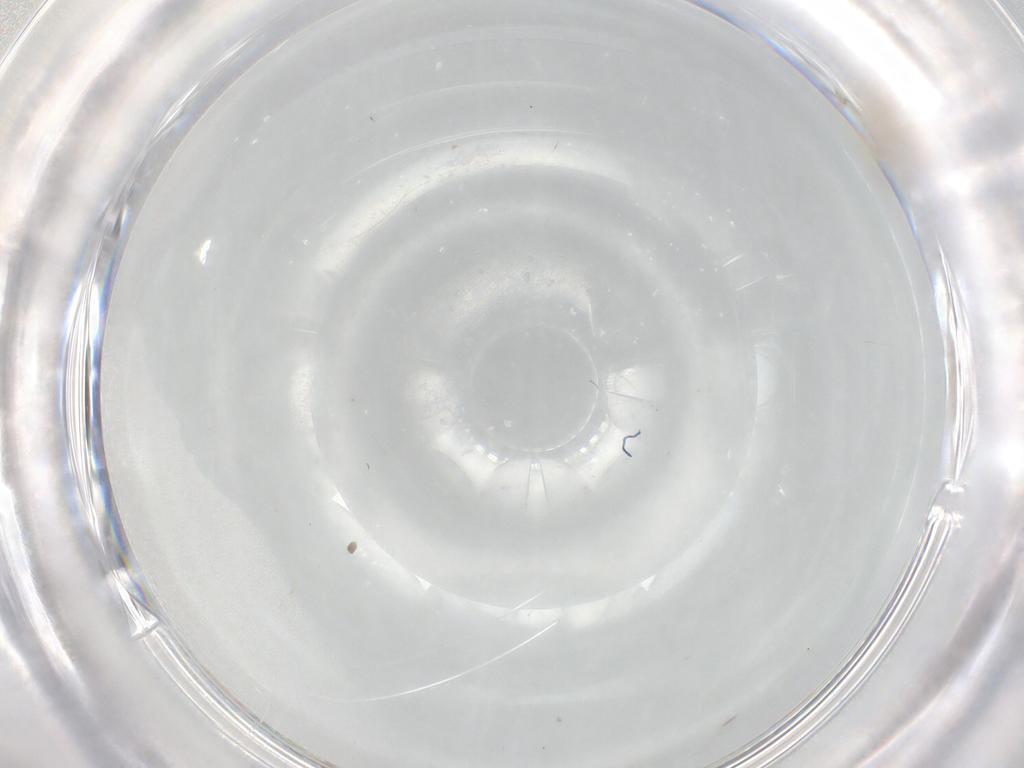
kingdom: Animalia
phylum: Arthropoda
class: Insecta
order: Diptera
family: Sciaridae
